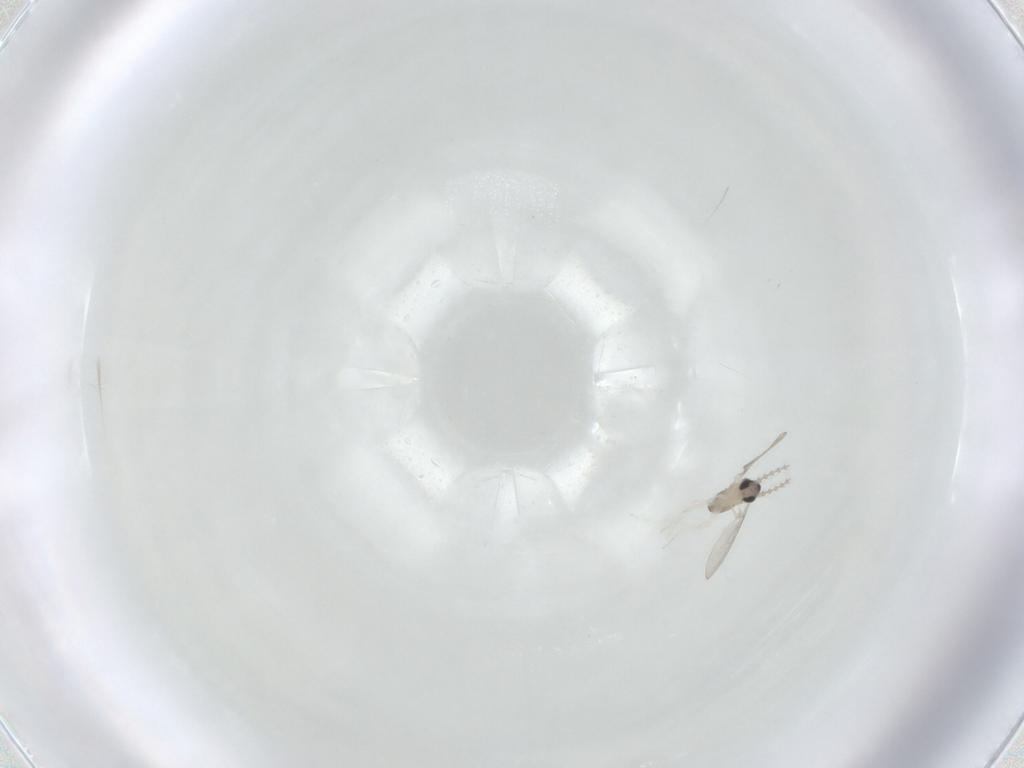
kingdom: Animalia
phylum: Arthropoda
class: Insecta
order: Diptera
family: Cecidomyiidae
